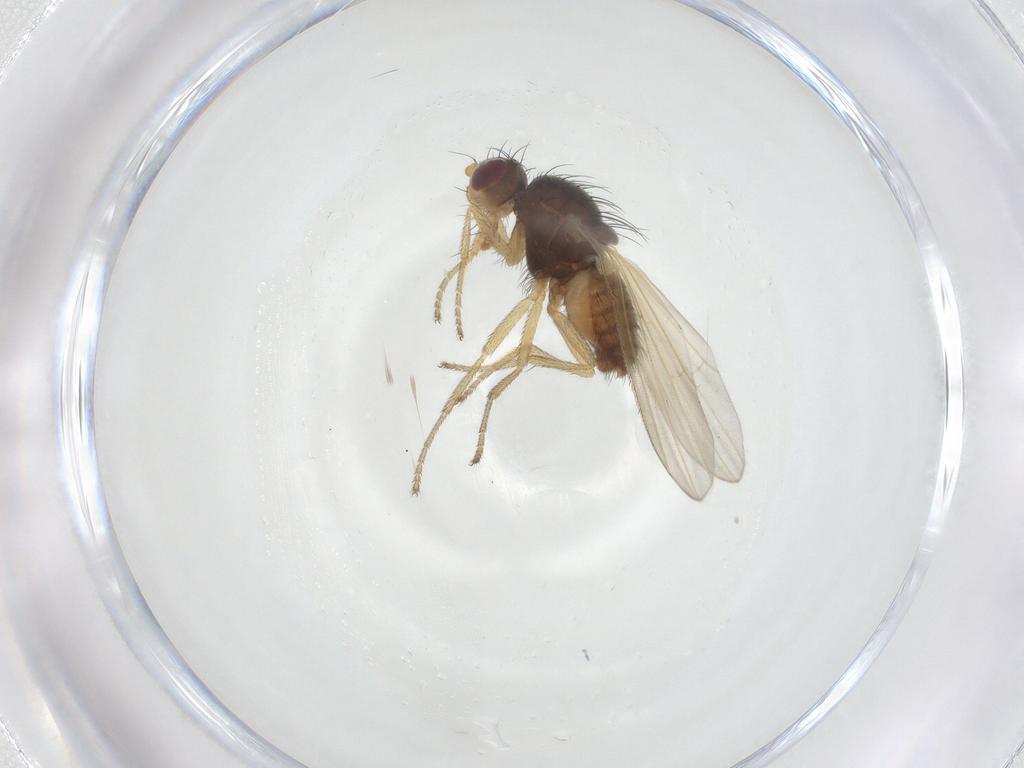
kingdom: Animalia
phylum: Arthropoda
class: Insecta
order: Diptera
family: Heleomyzidae
